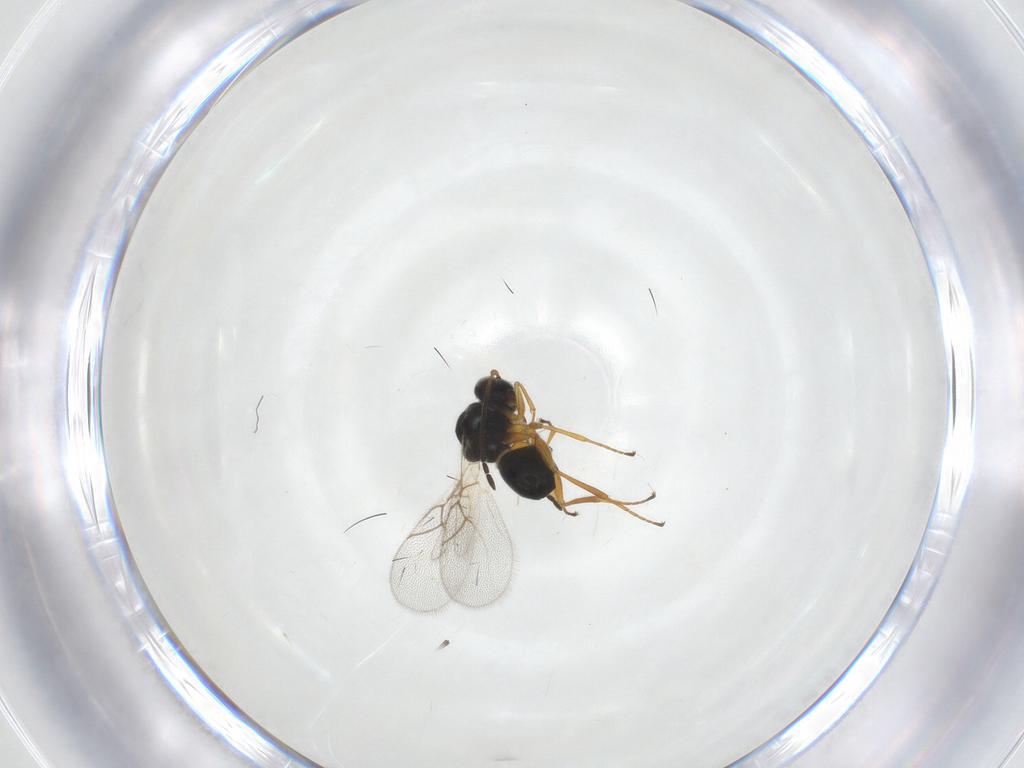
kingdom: Animalia
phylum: Arthropoda
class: Insecta
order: Hymenoptera
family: Figitidae
